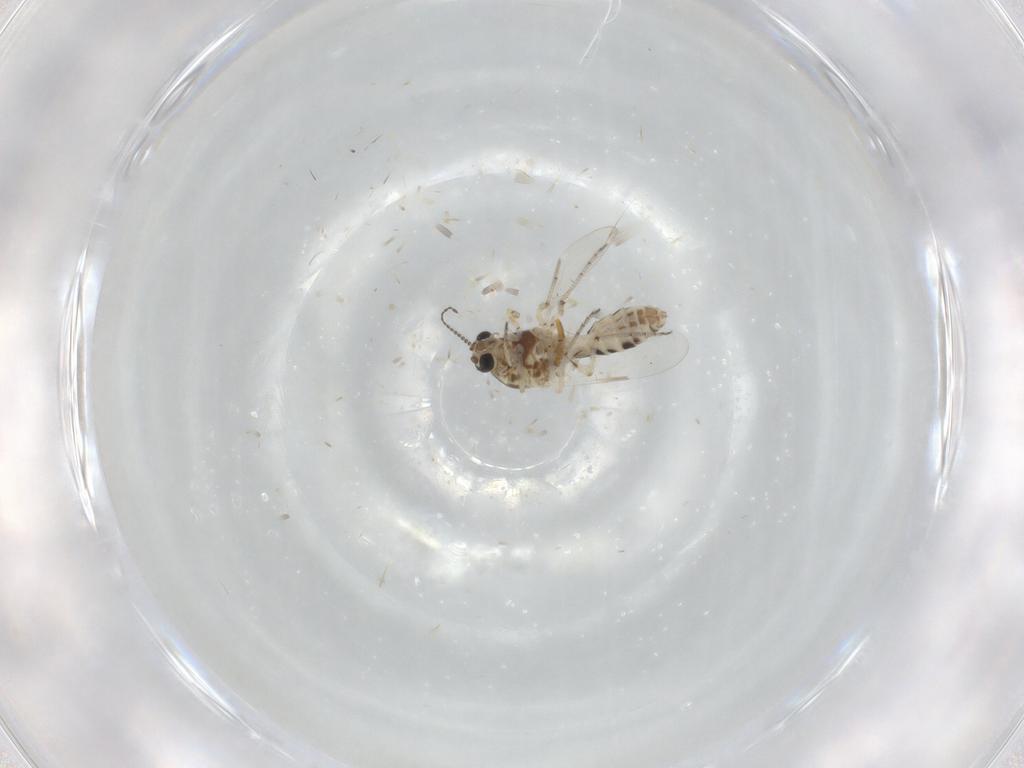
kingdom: Animalia
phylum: Arthropoda
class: Insecta
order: Diptera
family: Ceratopogonidae
